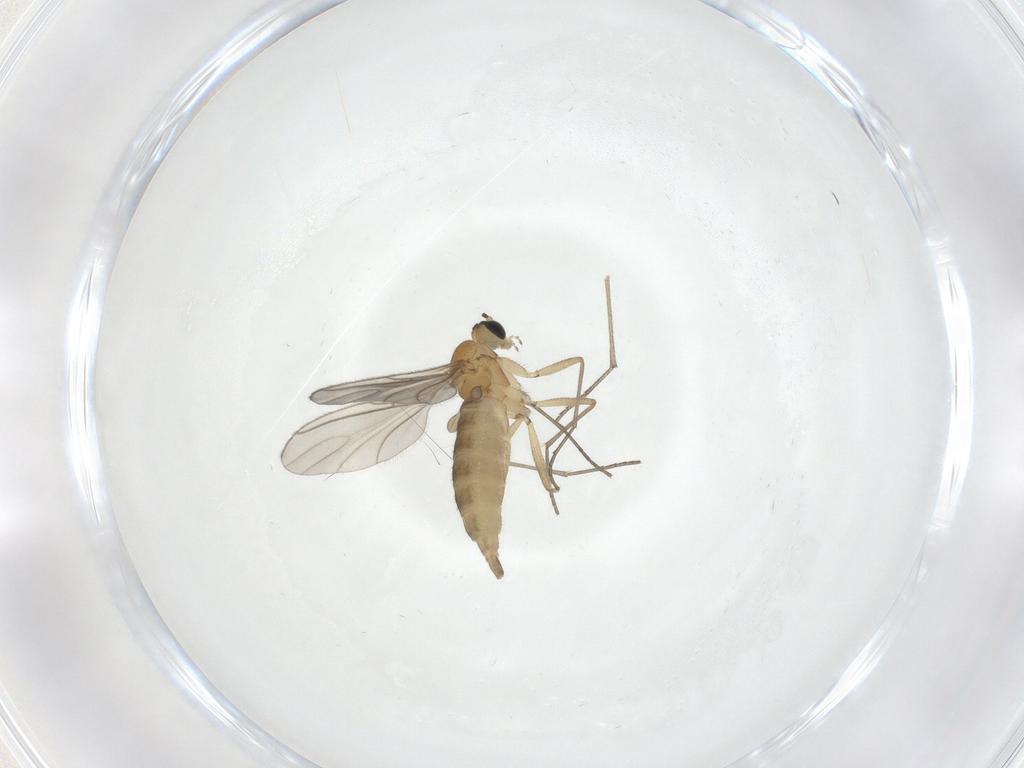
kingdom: Animalia
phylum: Arthropoda
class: Insecta
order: Diptera
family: Sciaridae
